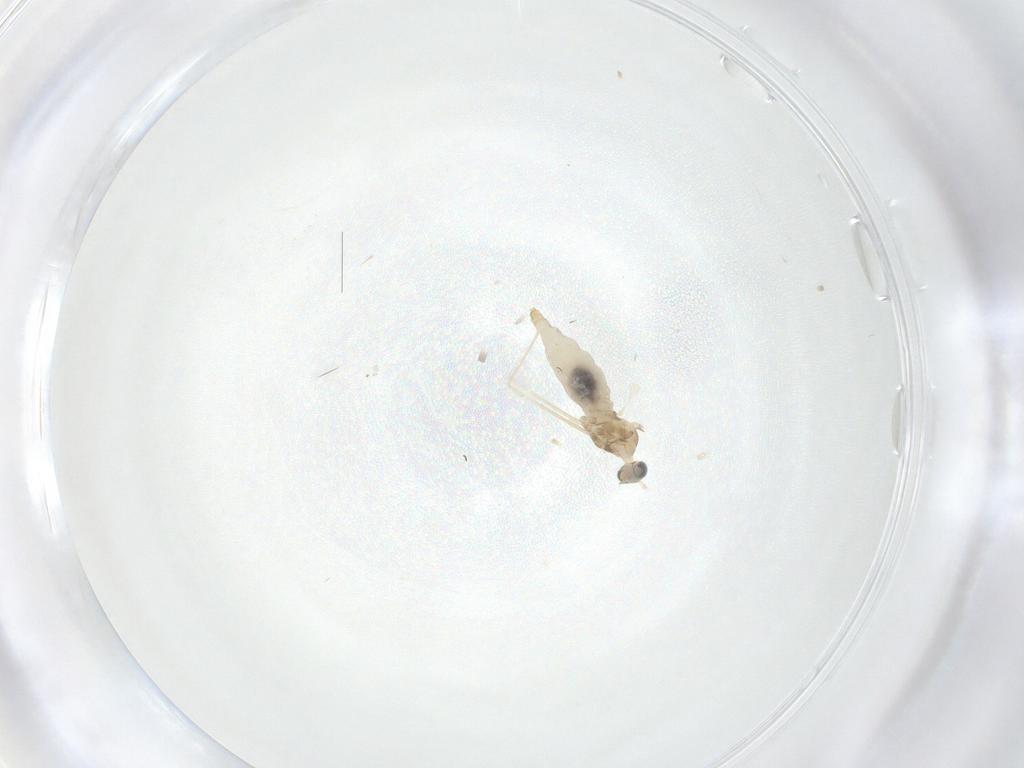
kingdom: Animalia
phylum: Arthropoda
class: Insecta
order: Diptera
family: Cecidomyiidae
